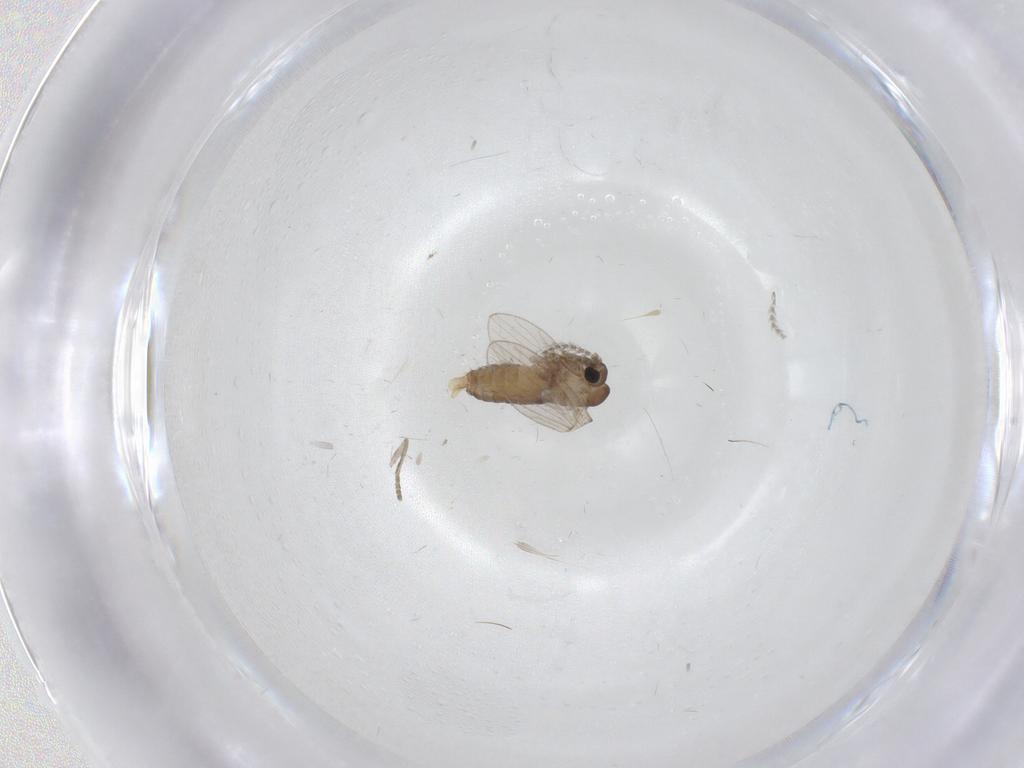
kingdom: Animalia
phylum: Arthropoda
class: Insecta
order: Diptera
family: Psychodidae
